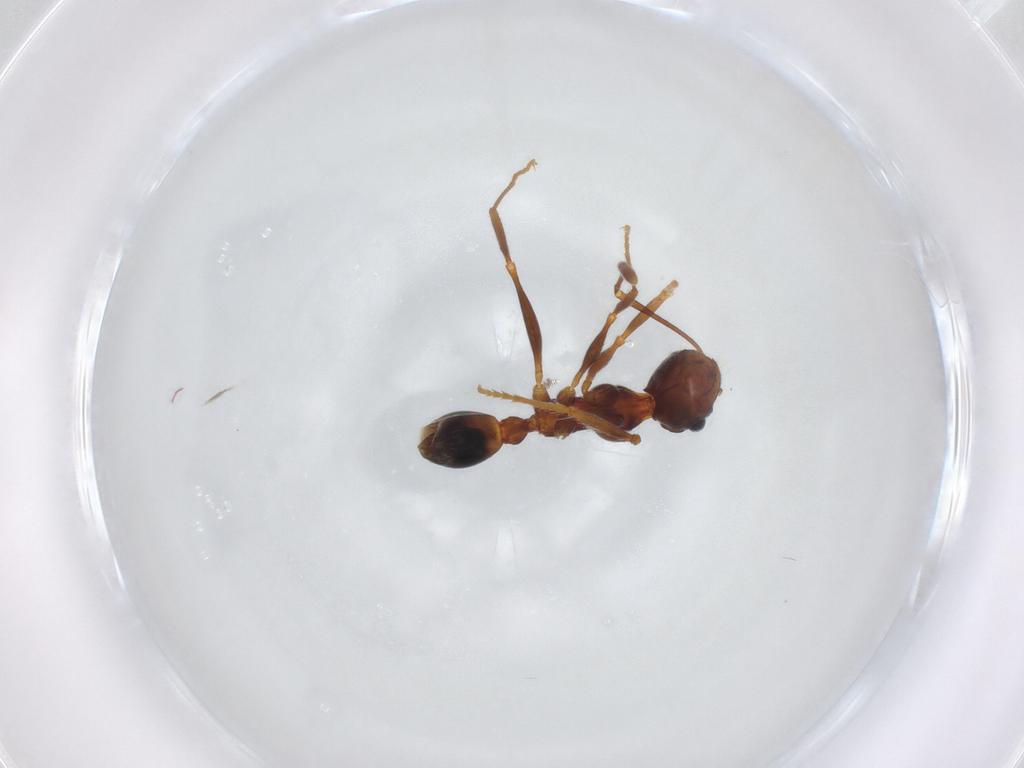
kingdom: Animalia
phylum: Arthropoda
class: Insecta
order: Hymenoptera
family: Formicidae
